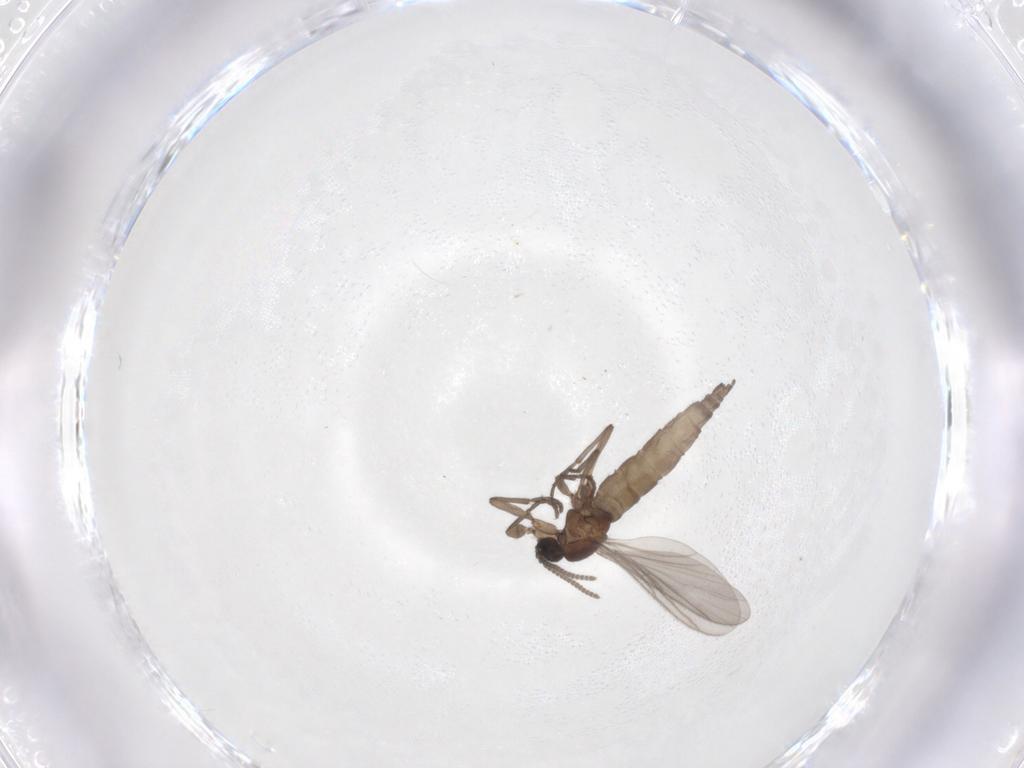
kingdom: Animalia
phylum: Arthropoda
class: Insecta
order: Diptera
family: Sciaridae
